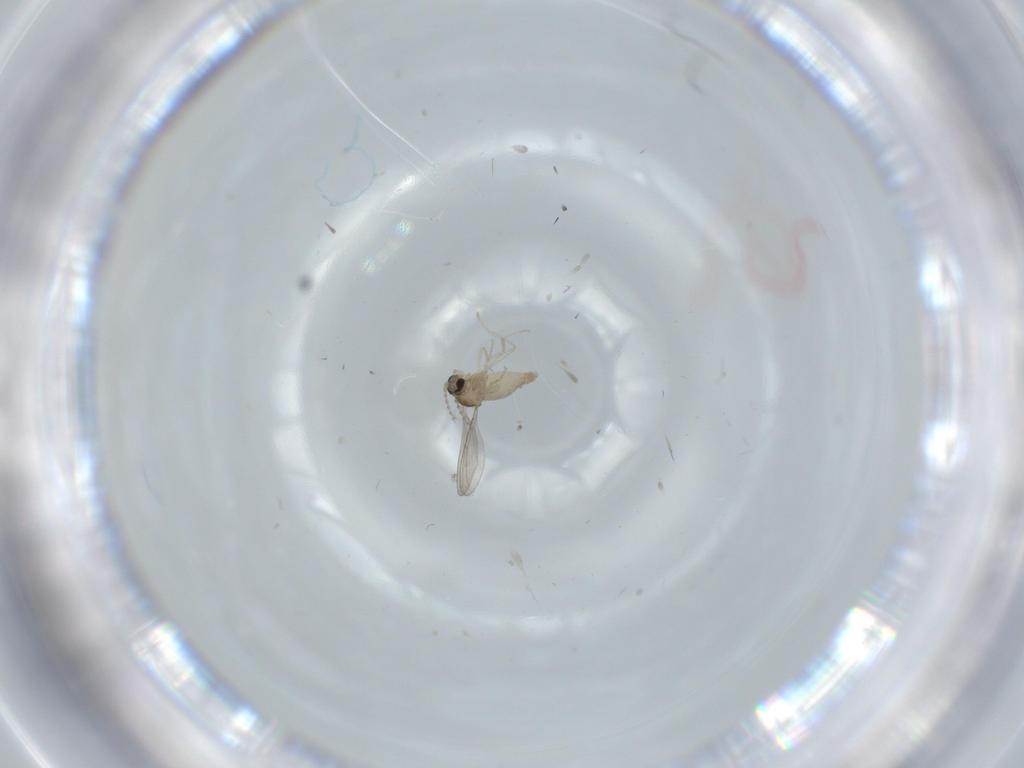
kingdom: Animalia
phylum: Arthropoda
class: Insecta
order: Diptera
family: Cecidomyiidae
